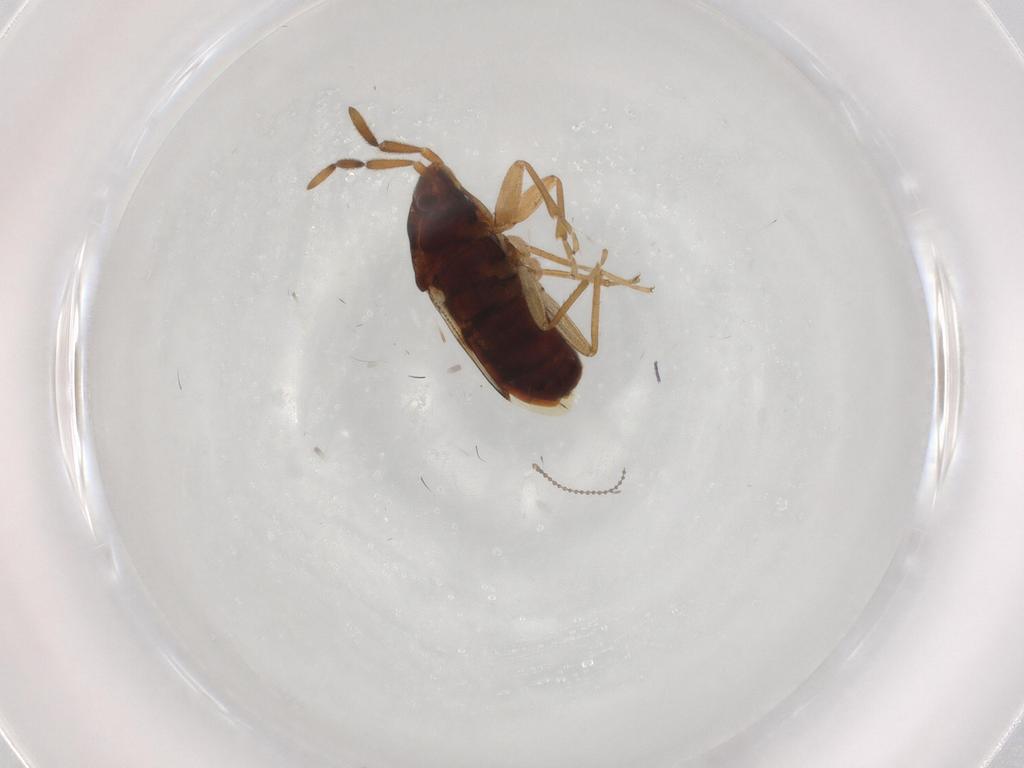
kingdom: Animalia
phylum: Arthropoda
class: Insecta
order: Hemiptera
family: Rhyparochromidae
